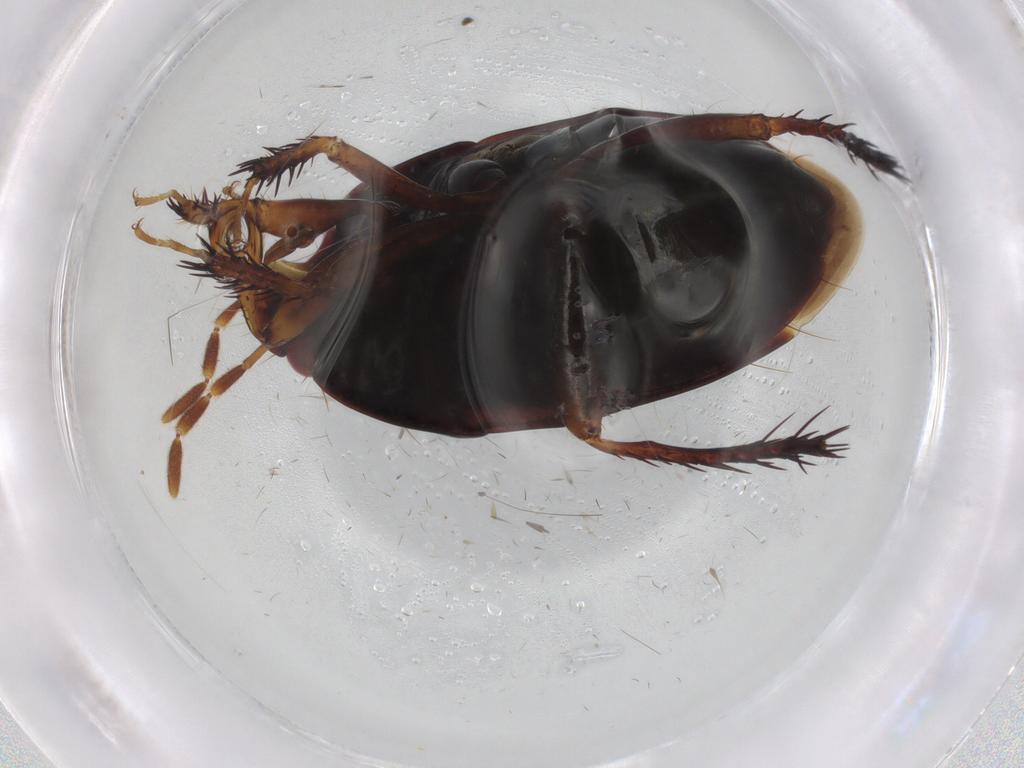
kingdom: Animalia
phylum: Arthropoda
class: Insecta
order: Hemiptera
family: Cydnidae
